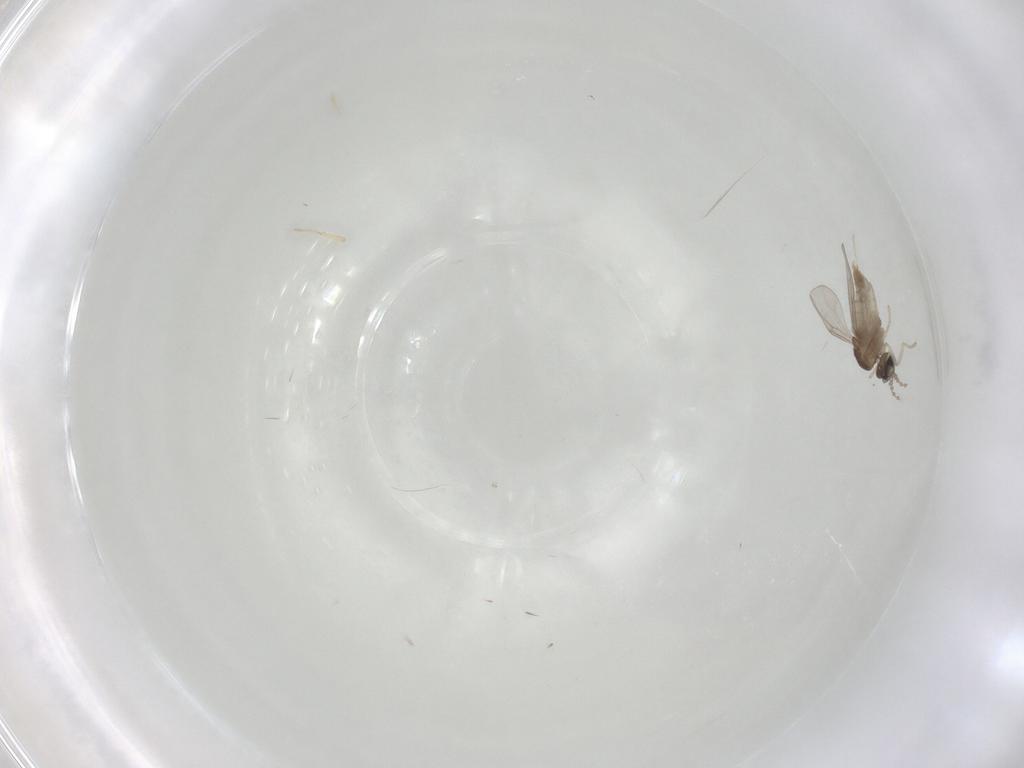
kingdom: Animalia
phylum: Arthropoda
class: Insecta
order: Diptera
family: Cecidomyiidae
